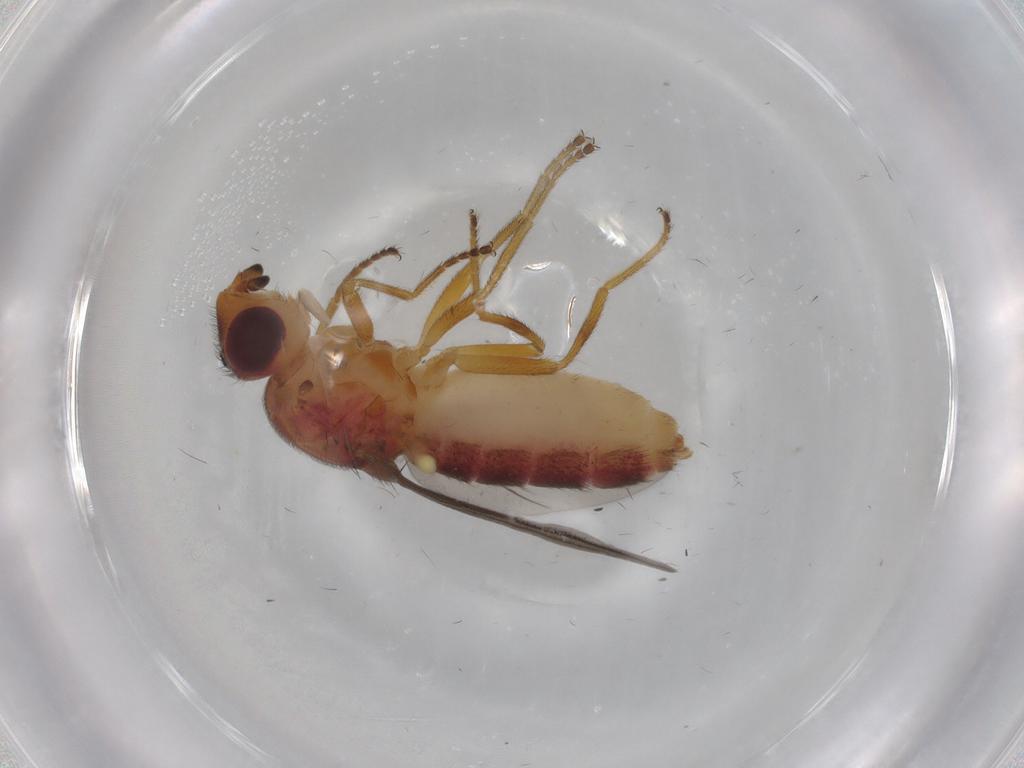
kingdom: Animalia
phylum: Arthropoda
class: Insecta
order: Diptera
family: Chloropidae
